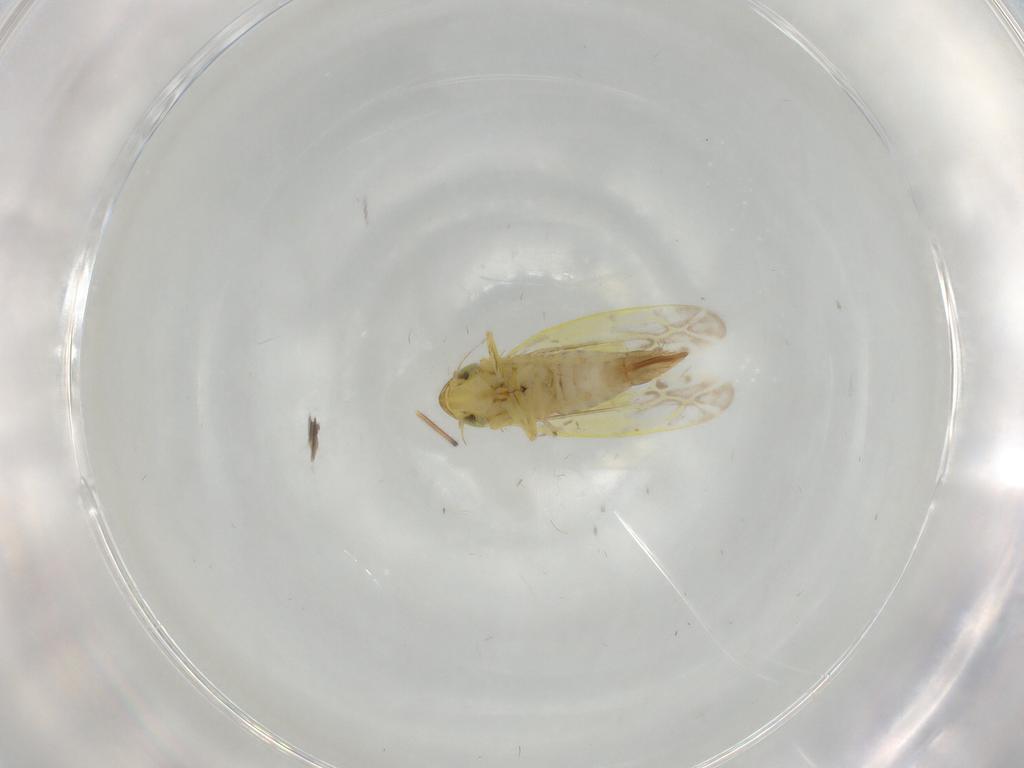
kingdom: Animalia
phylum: Arthropoda
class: Insecta
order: Hemiptera
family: Cicadellidae
